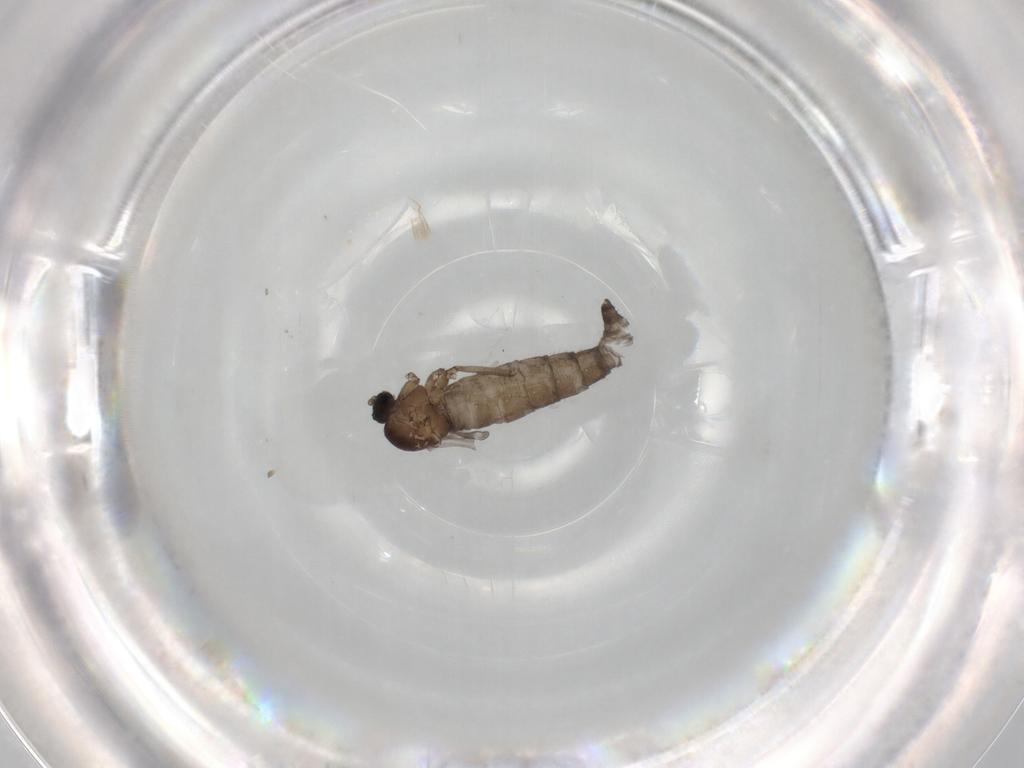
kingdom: Animalia
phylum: Arthropoda
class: Insecta
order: Diptera
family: Sciaridae
